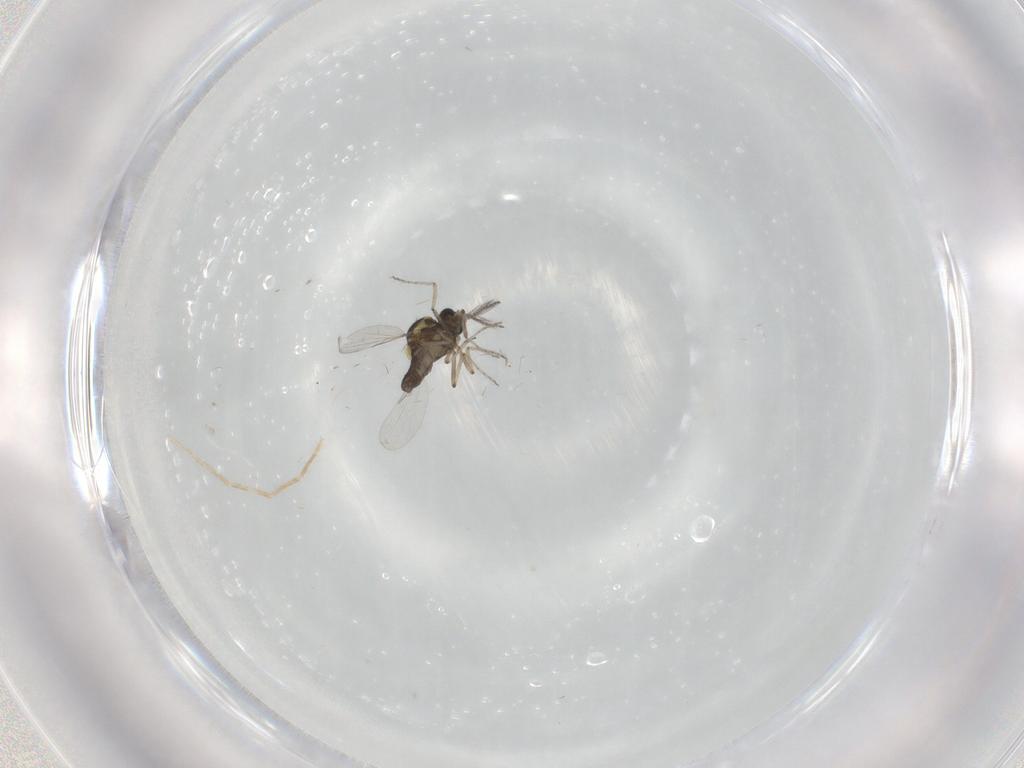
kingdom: Animalia
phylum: Arthropoda
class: Insecta
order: Diptera
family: Ceratopogonidae
